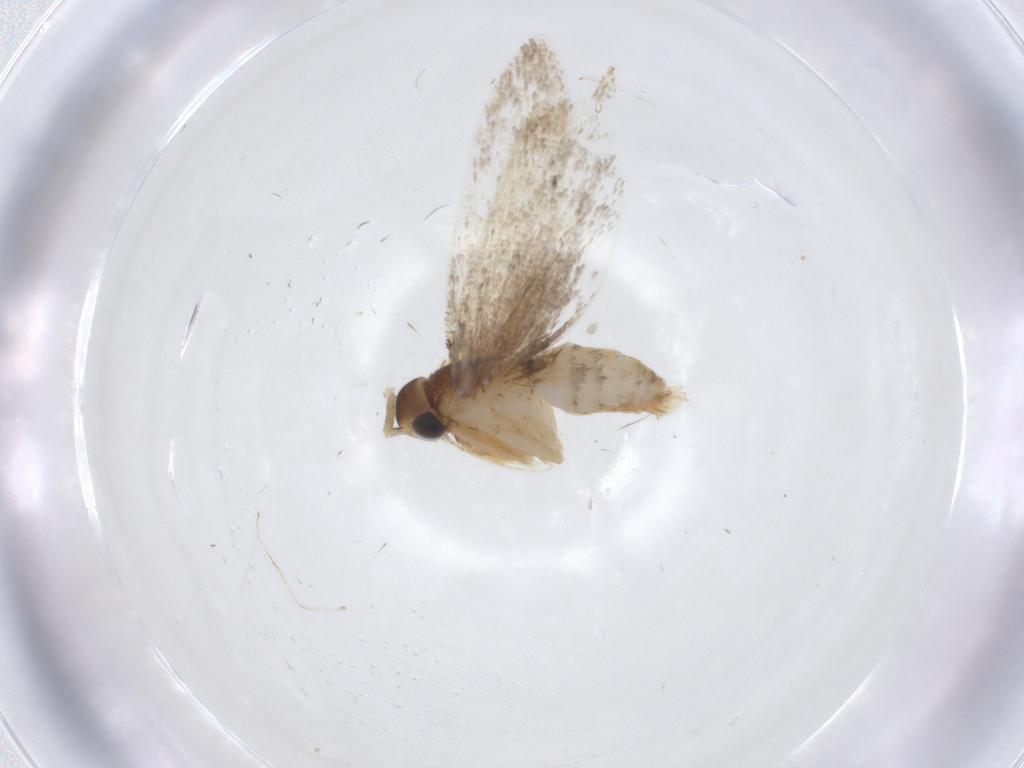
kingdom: Animalia
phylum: Arthropoda
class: Insecta
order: Lepidoptera
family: Oecophoridae
